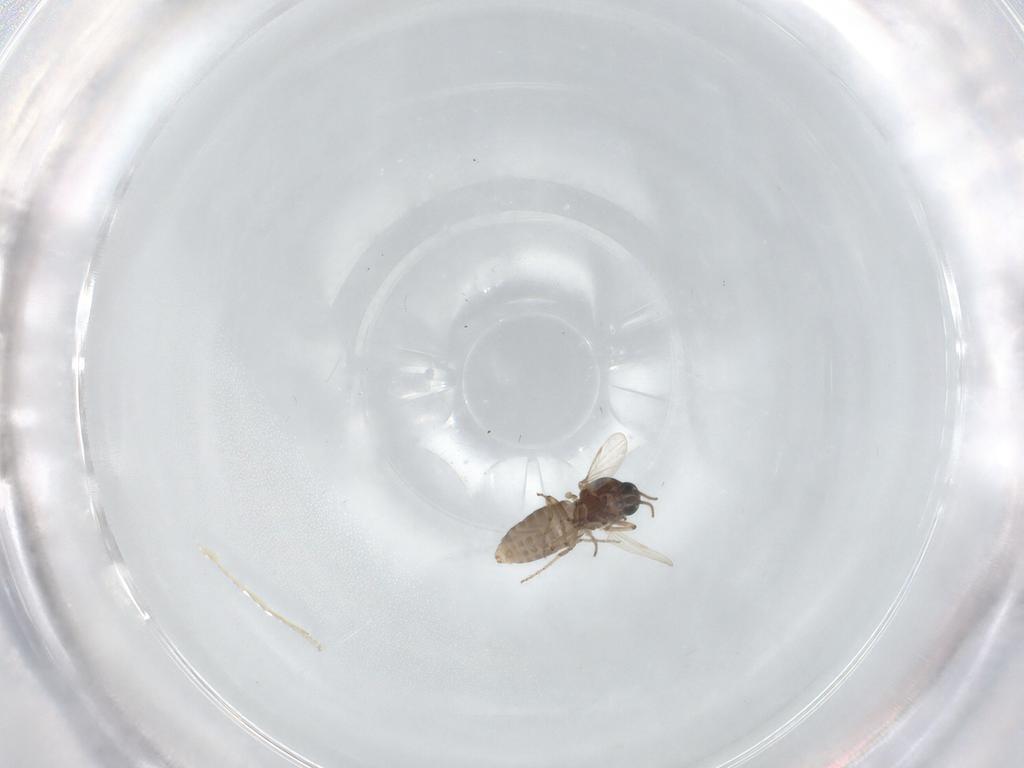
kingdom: Animalia
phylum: Arthropoda
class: Insecta
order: Diptera
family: Ceratopogonidae
